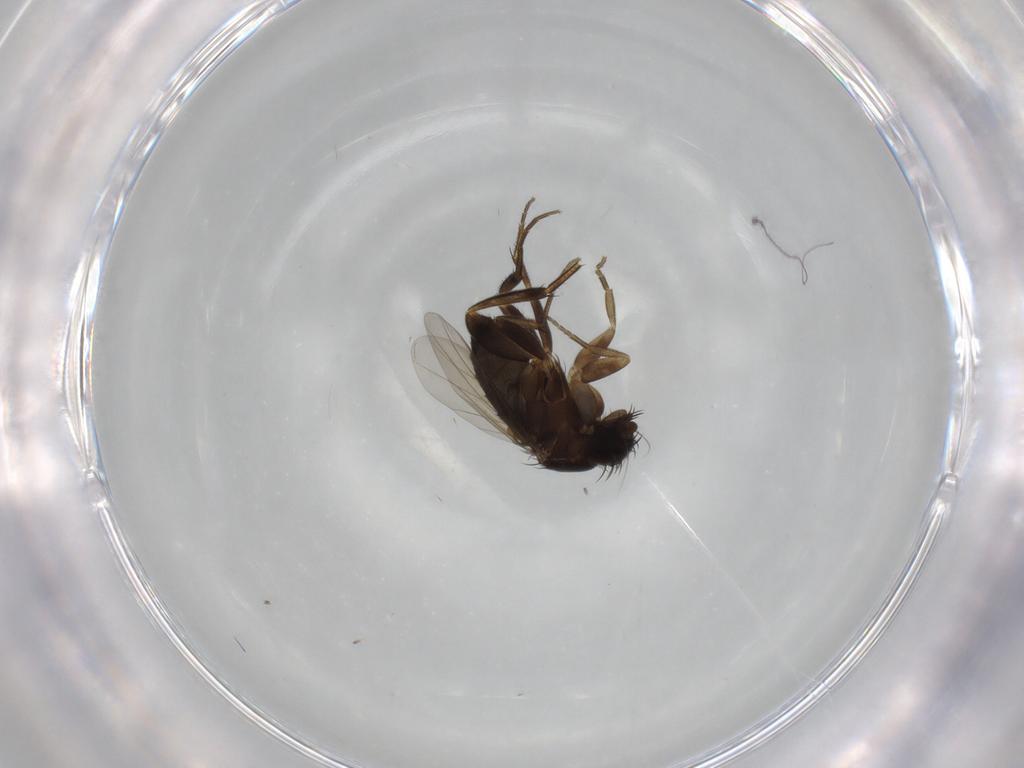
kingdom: Animalia
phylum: Arthropoda
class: Insecta
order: Diptera
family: Phoridae
